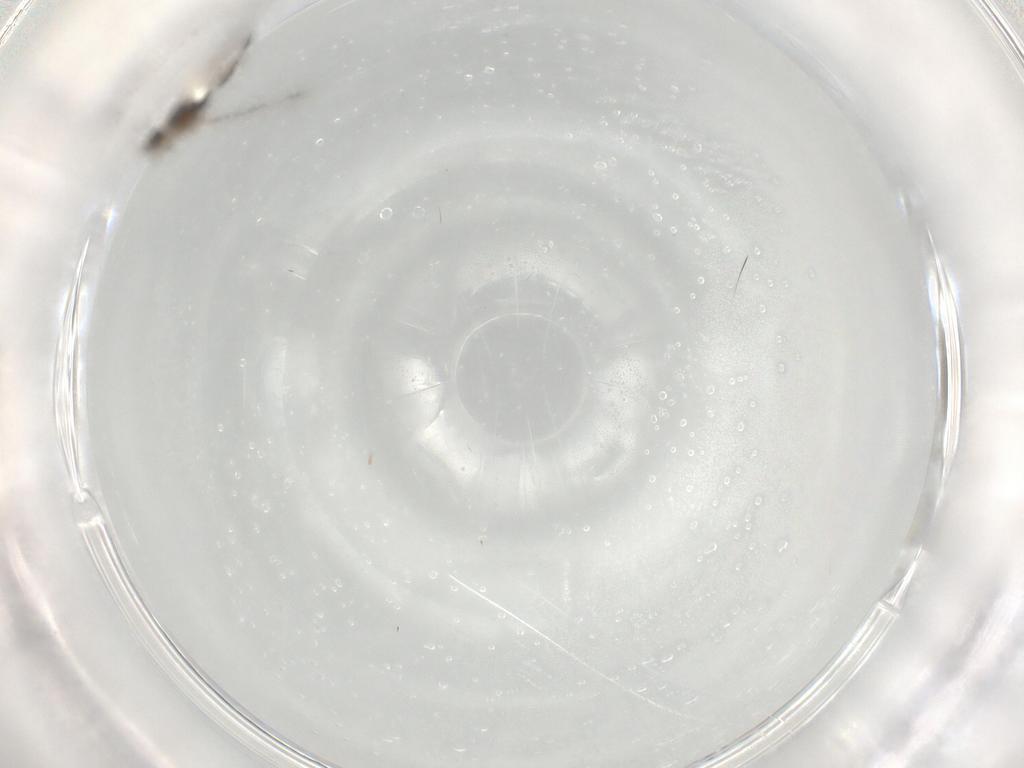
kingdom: Animalia
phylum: Arthropoda
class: Insecta
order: Diptera
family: Cecidomyiidae
